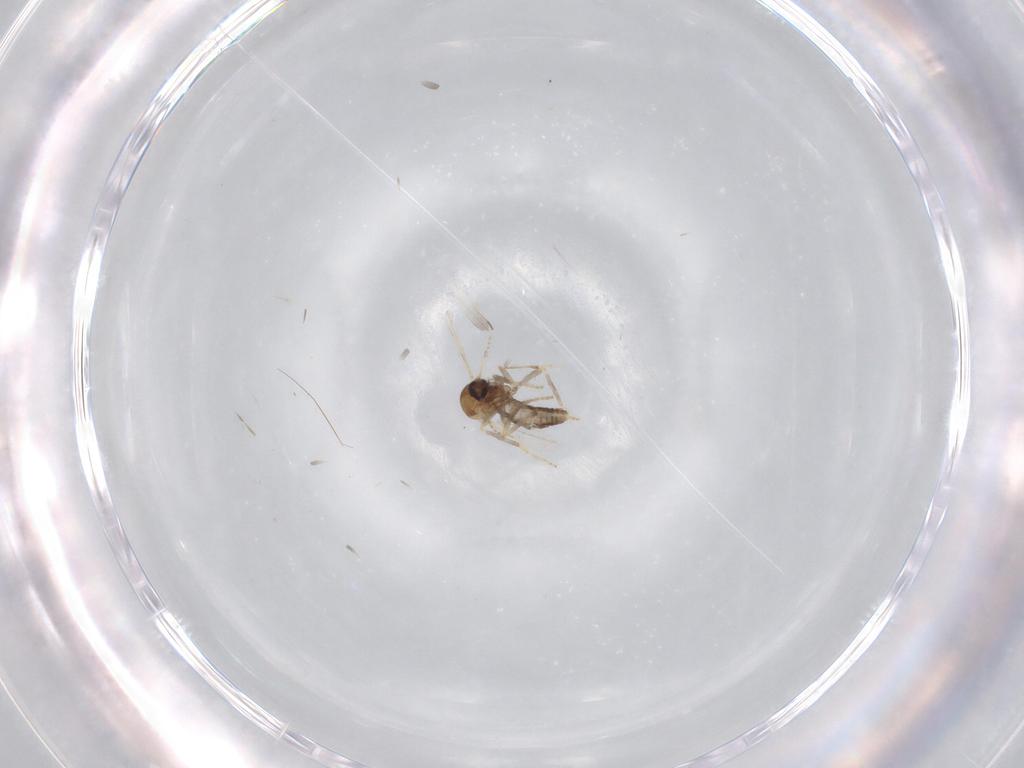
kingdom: Animalia
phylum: Arthropoda
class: Insecta
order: Diptera
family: Ceratopogonidae
